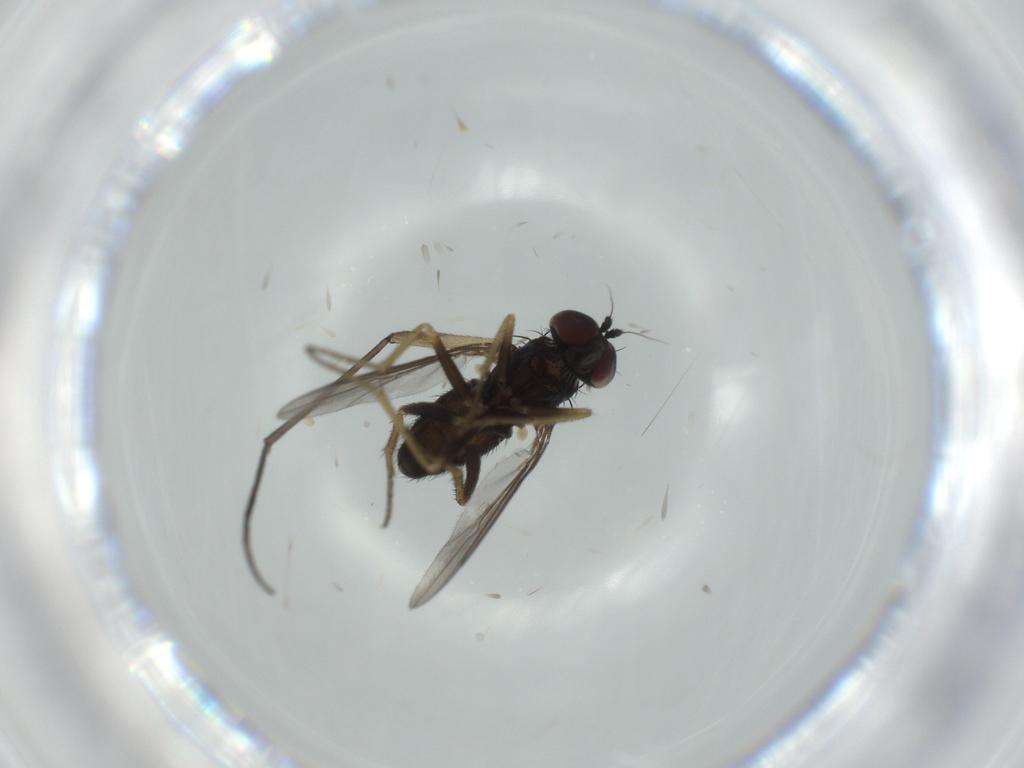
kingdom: Animalia
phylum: Arthropoda
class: Insecta
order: Diptera
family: Sciaridae
